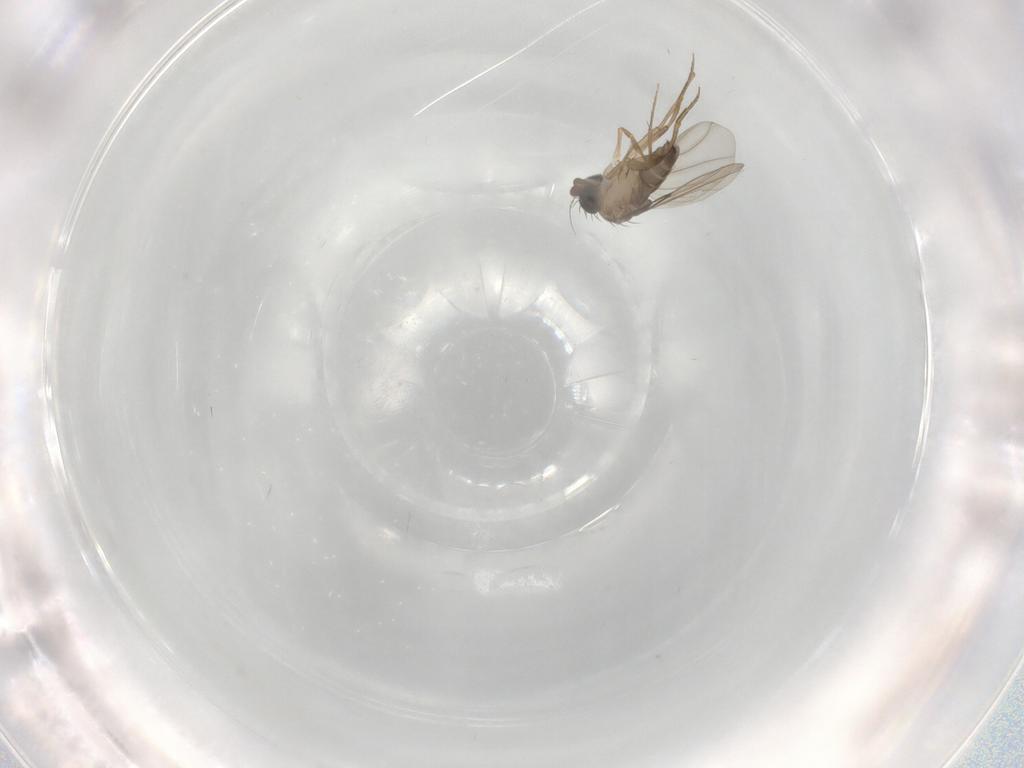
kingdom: Animalia
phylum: Arthropoda
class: Insecta
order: Diptera
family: Phoridae
